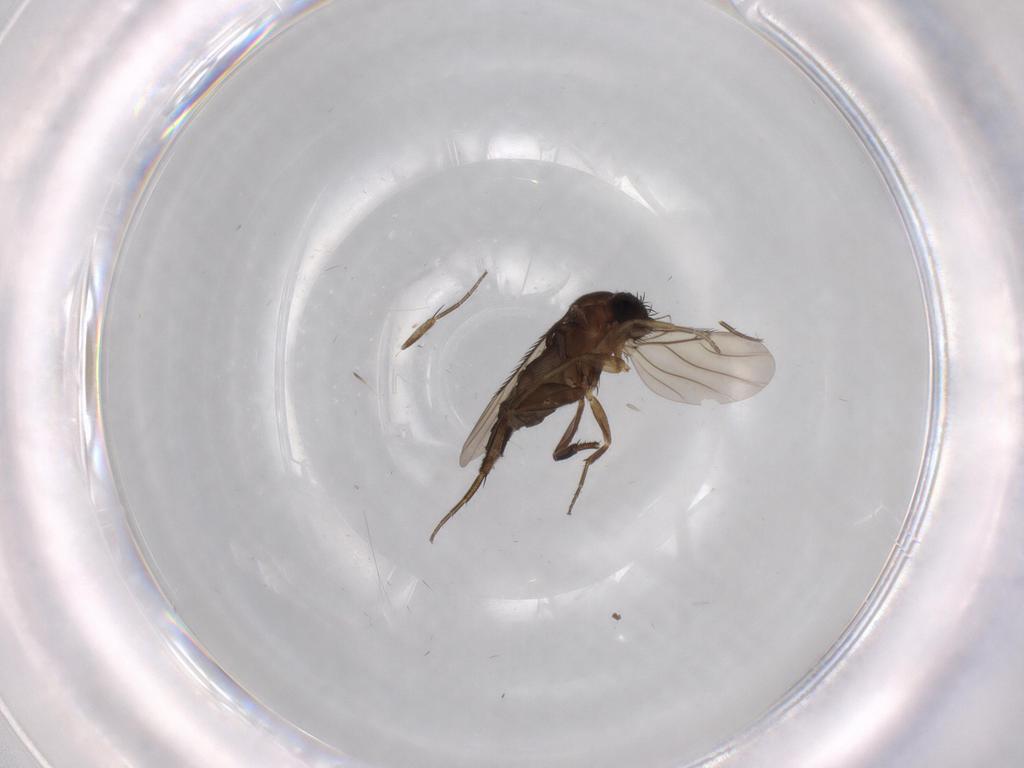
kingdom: Animalia
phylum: Arthropoda
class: Insecta
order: Diptera
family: Phoridae
